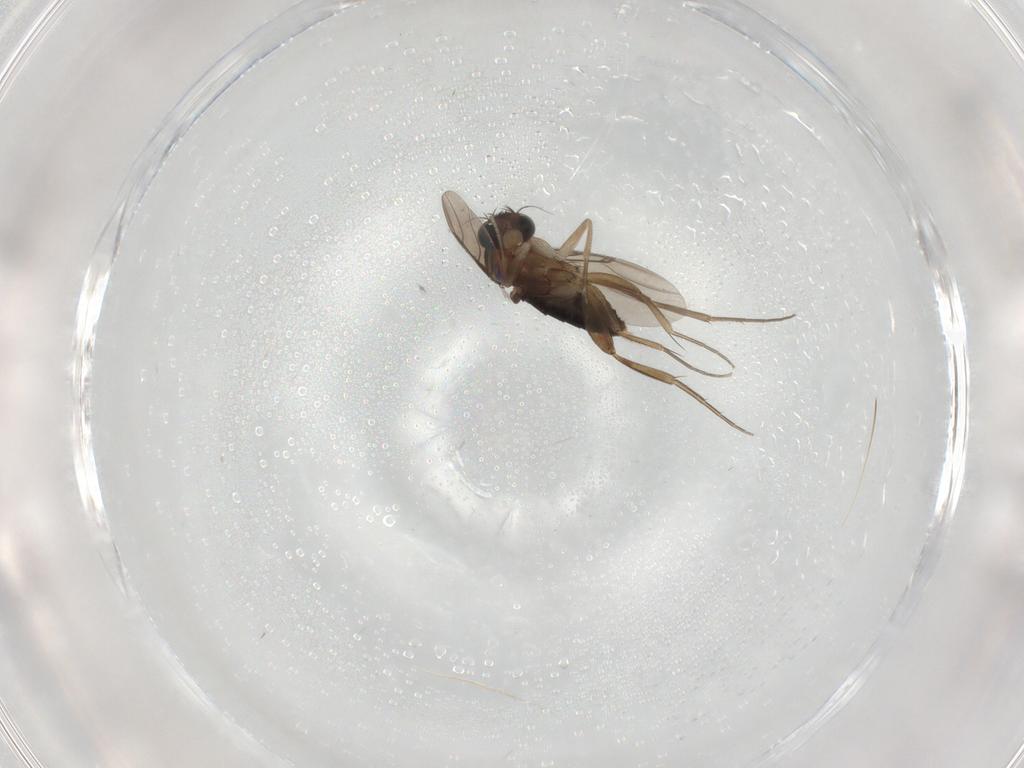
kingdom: Animalia
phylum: Arthropoda
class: Insecta
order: Diptera
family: Phoridae
